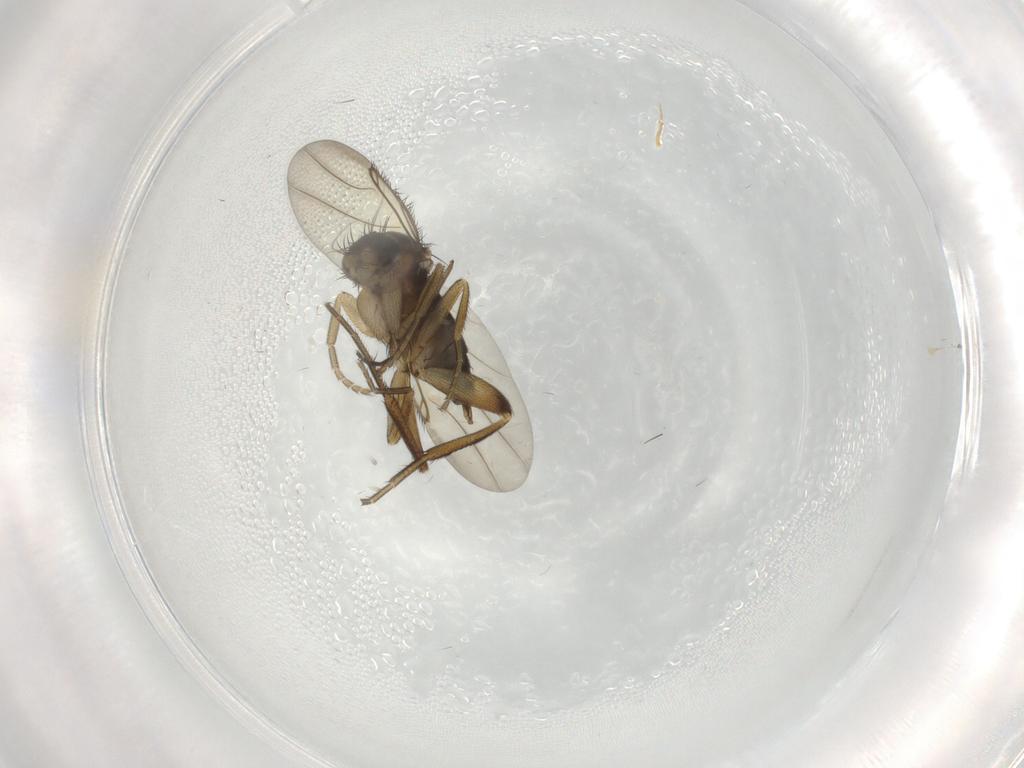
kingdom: Animalia
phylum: Arthropoda
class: Insecta
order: Diptera
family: Phoridae
